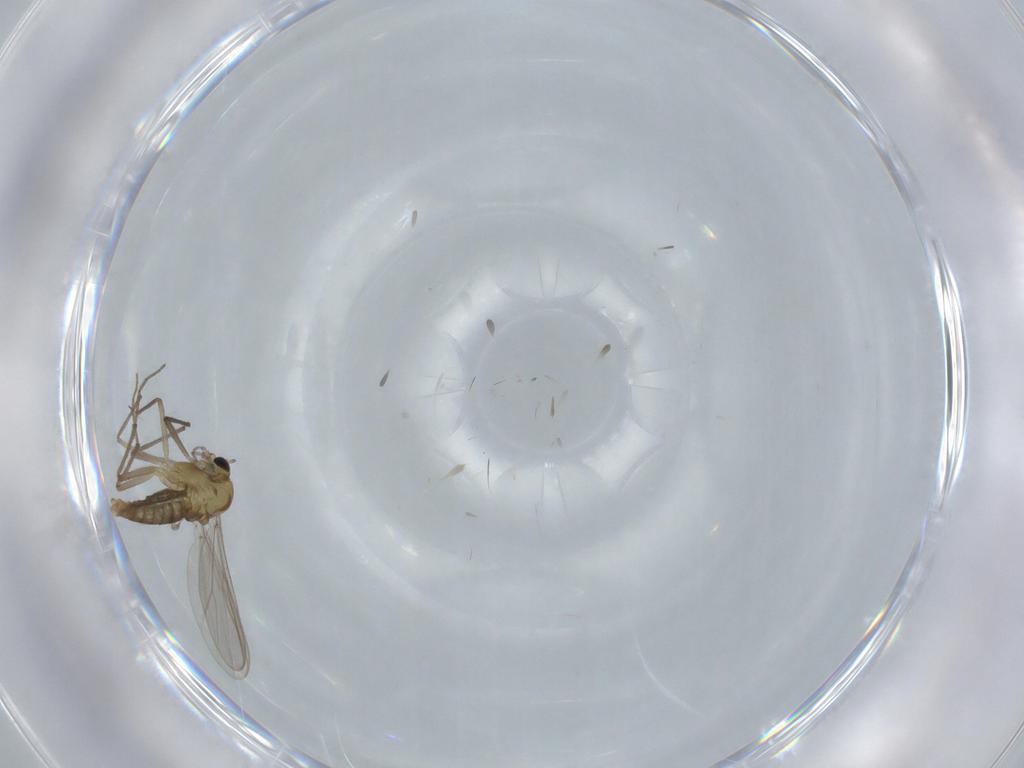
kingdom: Animalia
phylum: Arthropoda
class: Insecta
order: Diptera
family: Chironomidae
